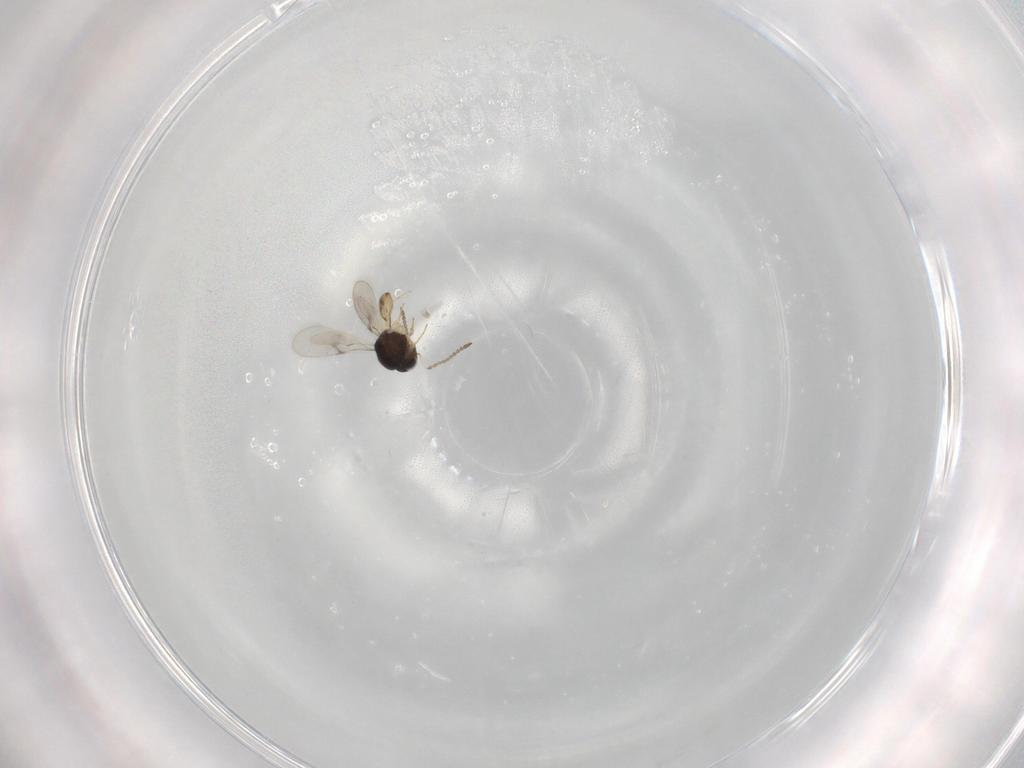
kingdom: Animalia
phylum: Arthropoda
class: Insecta
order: Hymenoptera
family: Scelionidae
